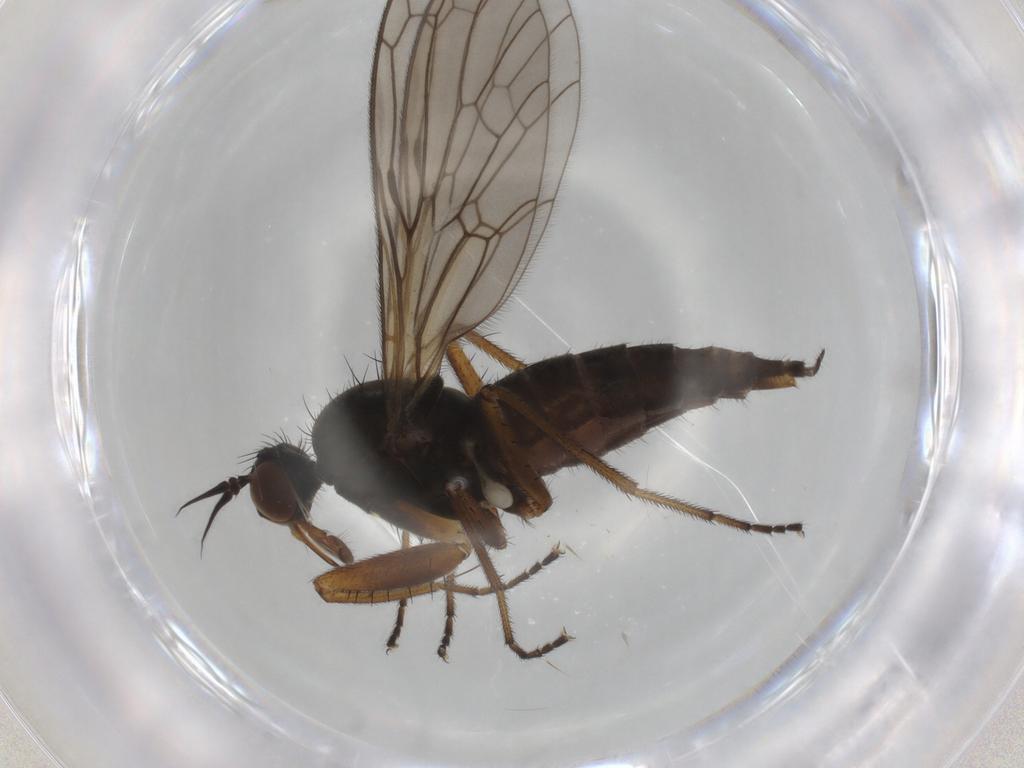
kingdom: Animalia
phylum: Arthropoda
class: Insecta
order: Diptera
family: Empididae
